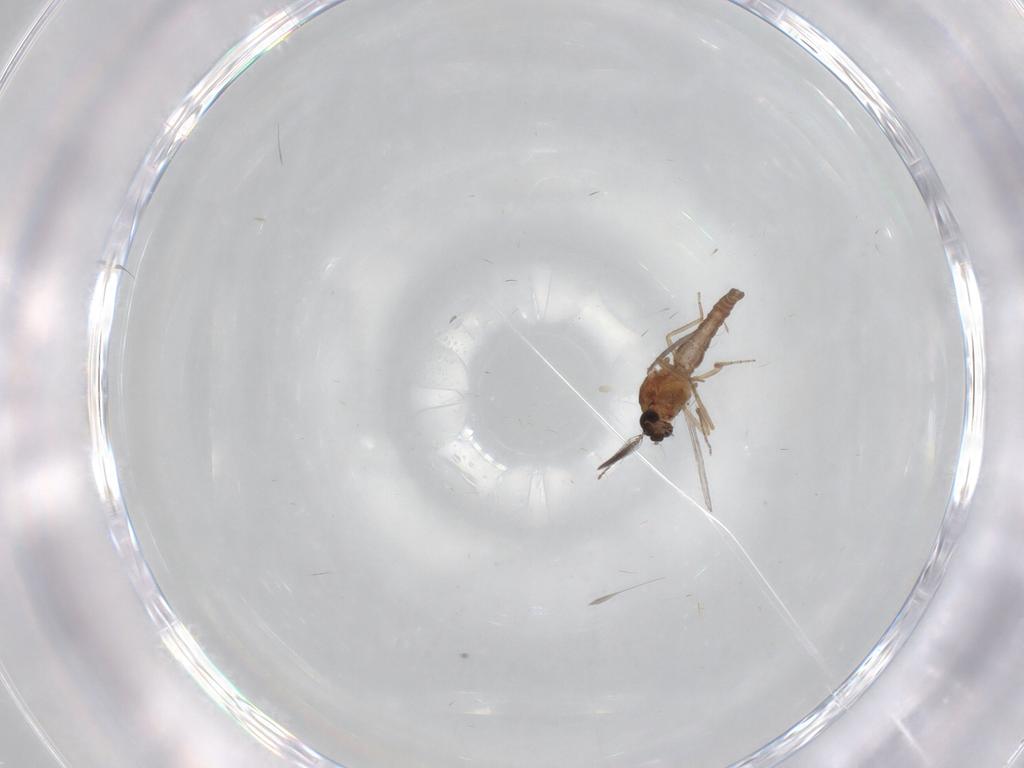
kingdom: Animalia
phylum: Arthropoda
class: Insecta
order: Diptera
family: Ceratopogonidae
